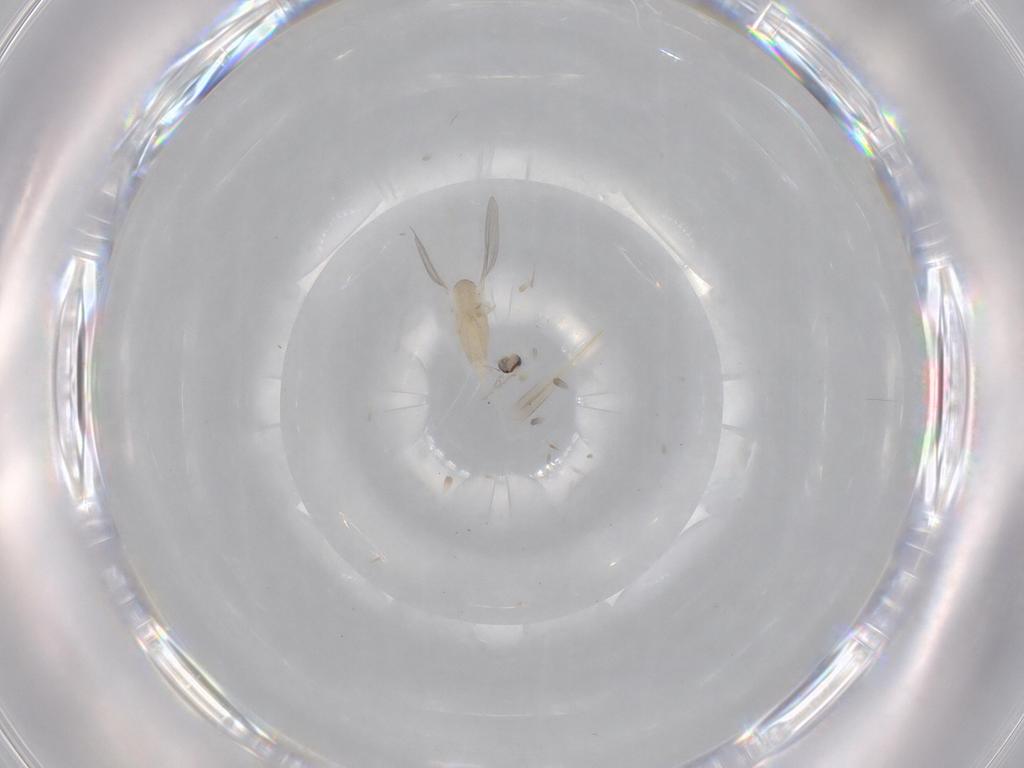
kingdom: Animalia
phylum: Arthropoda
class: Insecta
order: Diptera
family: Cecidomyiidae
